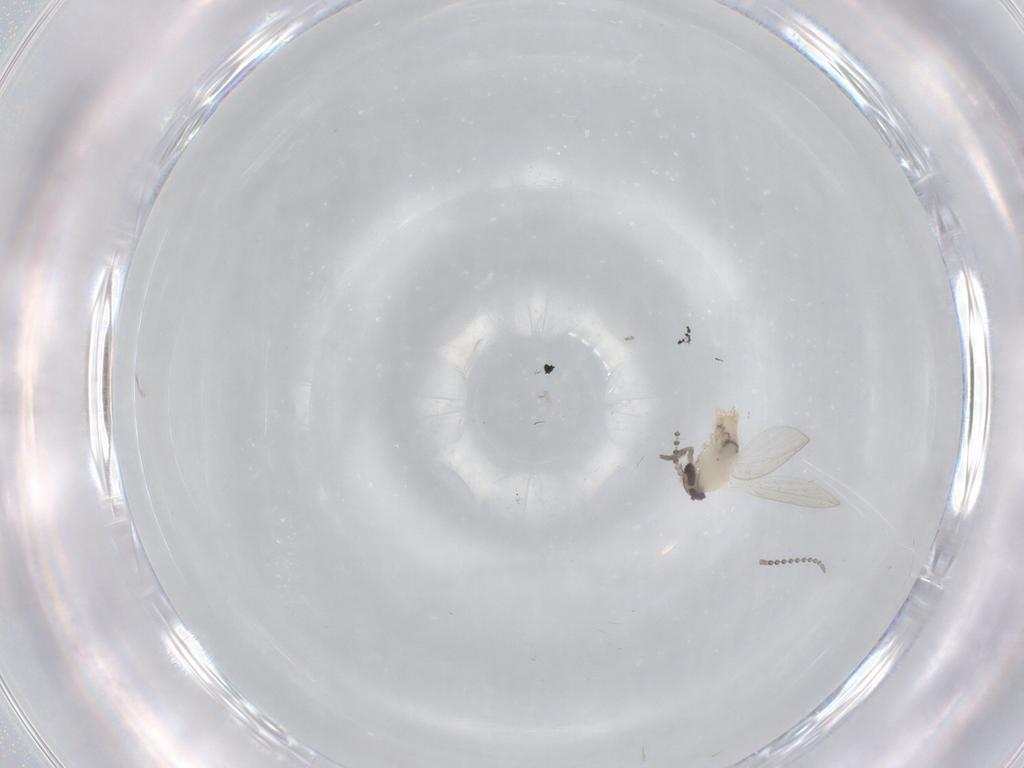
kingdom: Animalia
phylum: Arthropoda
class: Insecta
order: Diptera
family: Psychodidae
